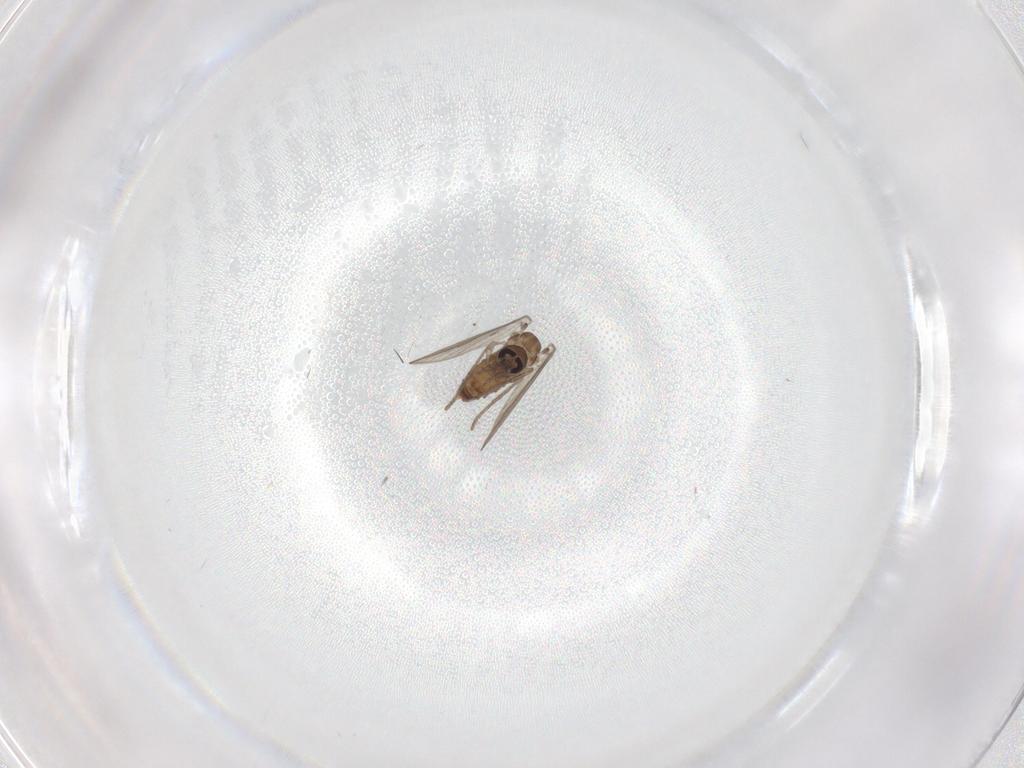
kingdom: Animalia
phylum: Arthropoda
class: Insecta
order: Diptera
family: Psychodidae
